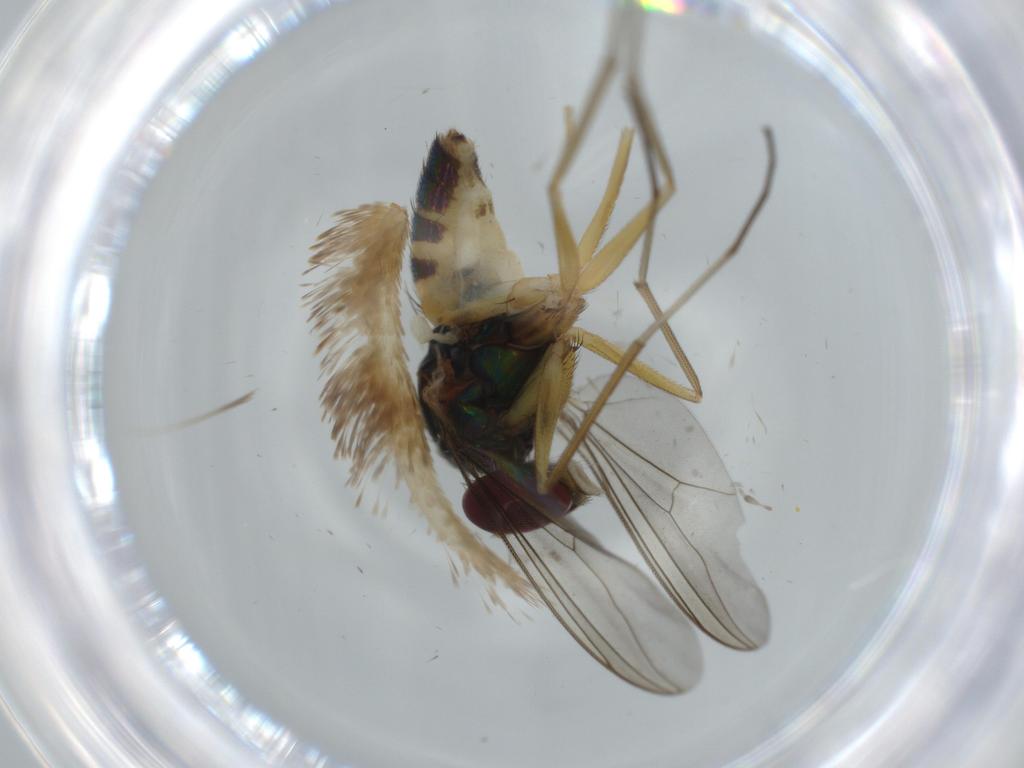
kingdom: Animalia
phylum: Arthropoda
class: Insecta
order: Diptera
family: Dolichopodidae
